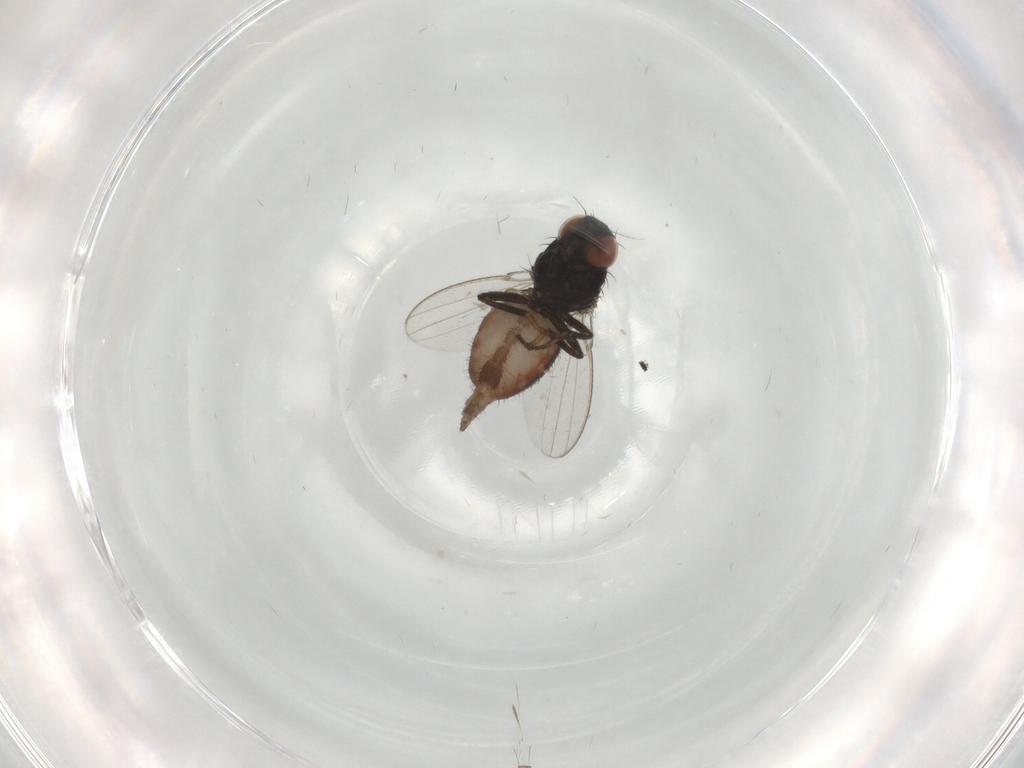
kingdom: Animalia
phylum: Arthropoda
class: Insecta
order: Diptera
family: Milichiidae
